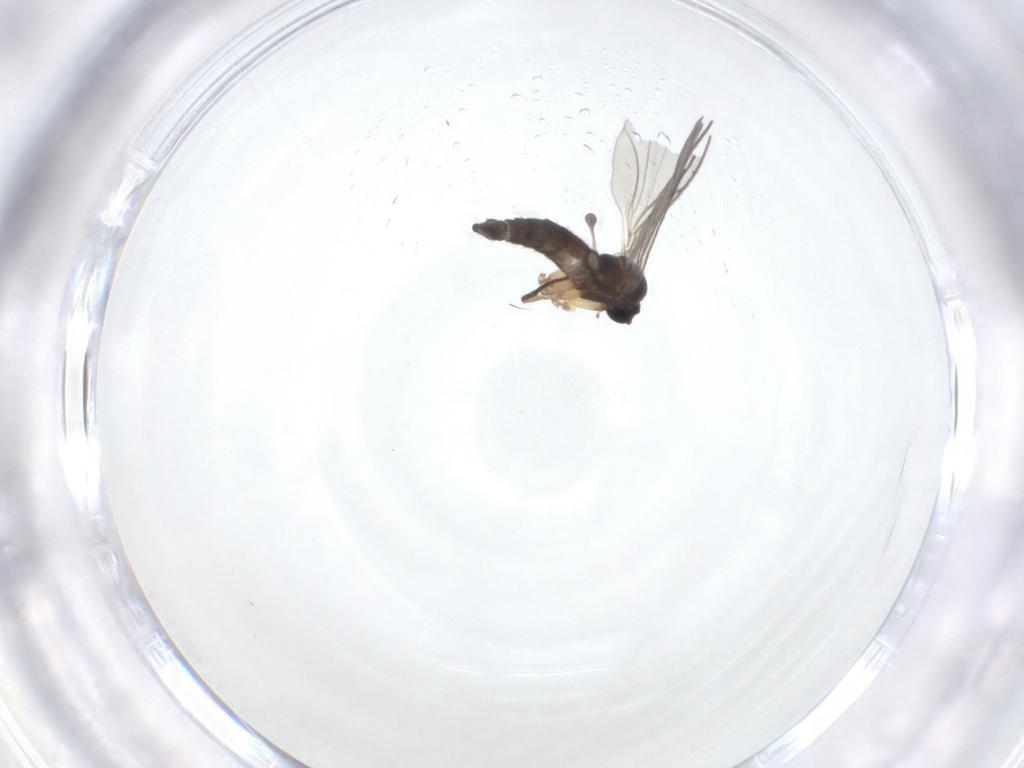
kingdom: Animalia
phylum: Arthropoda
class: Insecta
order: Diptera
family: Sciaridae
